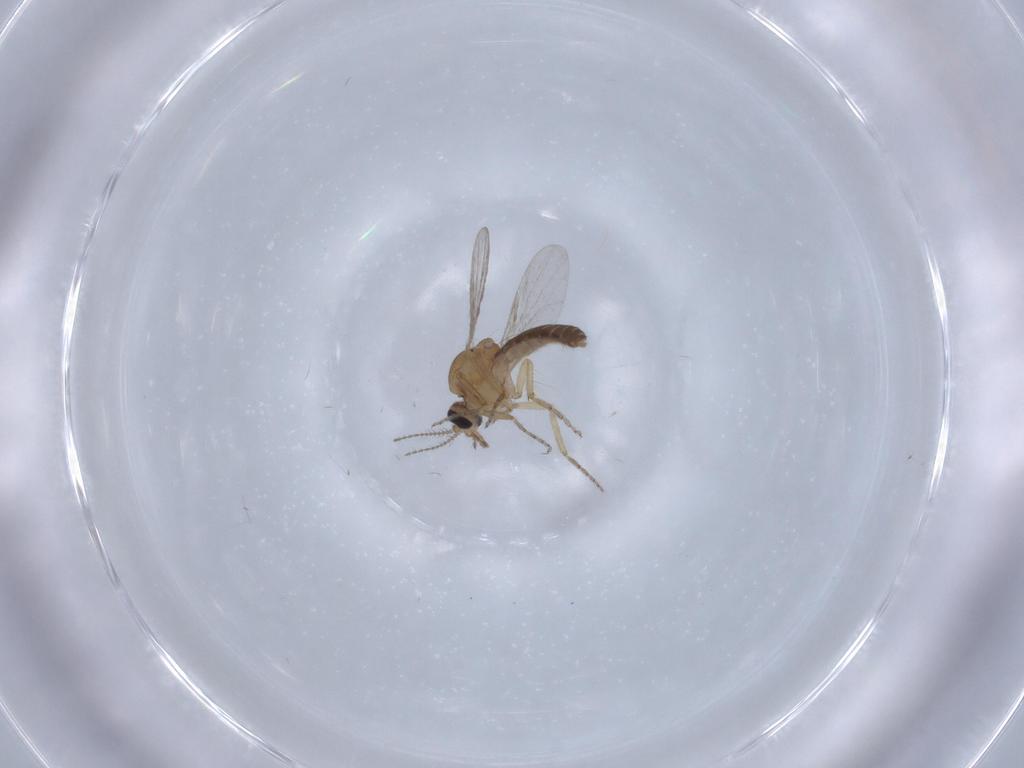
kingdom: Animalia
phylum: Arthropoda
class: Insecta
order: Diptera
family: Ceratopogonidae
